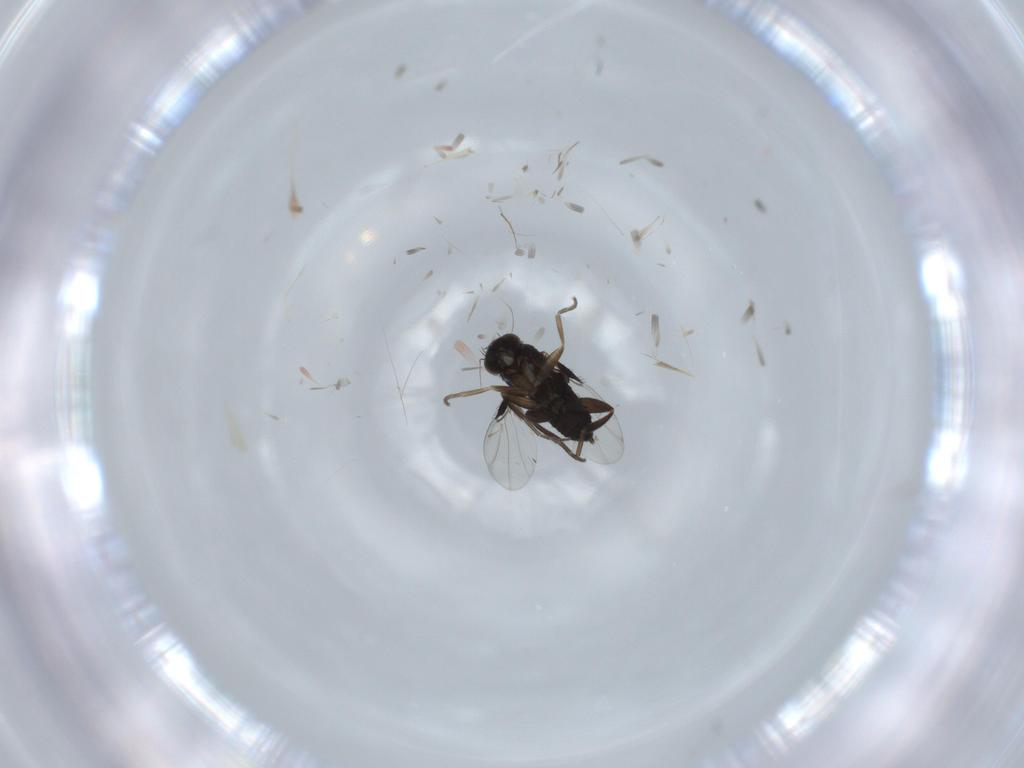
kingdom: Animalia
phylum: Arthropoda
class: Insecta
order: Diptera
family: Phoridae
